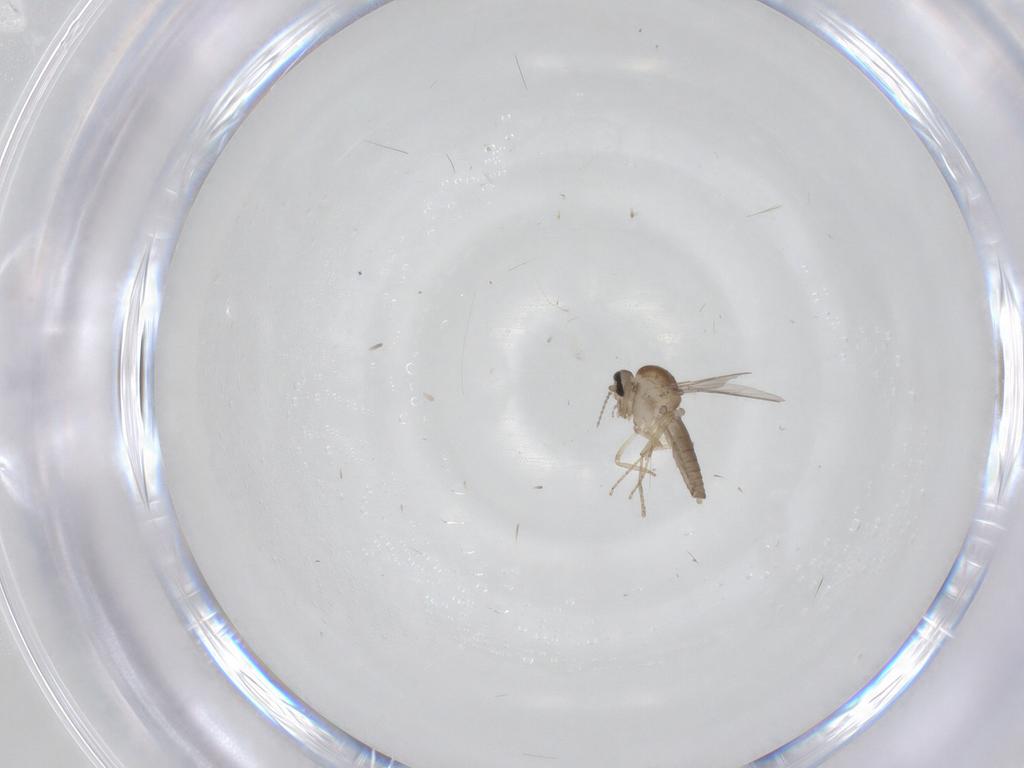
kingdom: Animalia
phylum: Arthropoda
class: Insecta
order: Diptera
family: Ceratopogonidae
